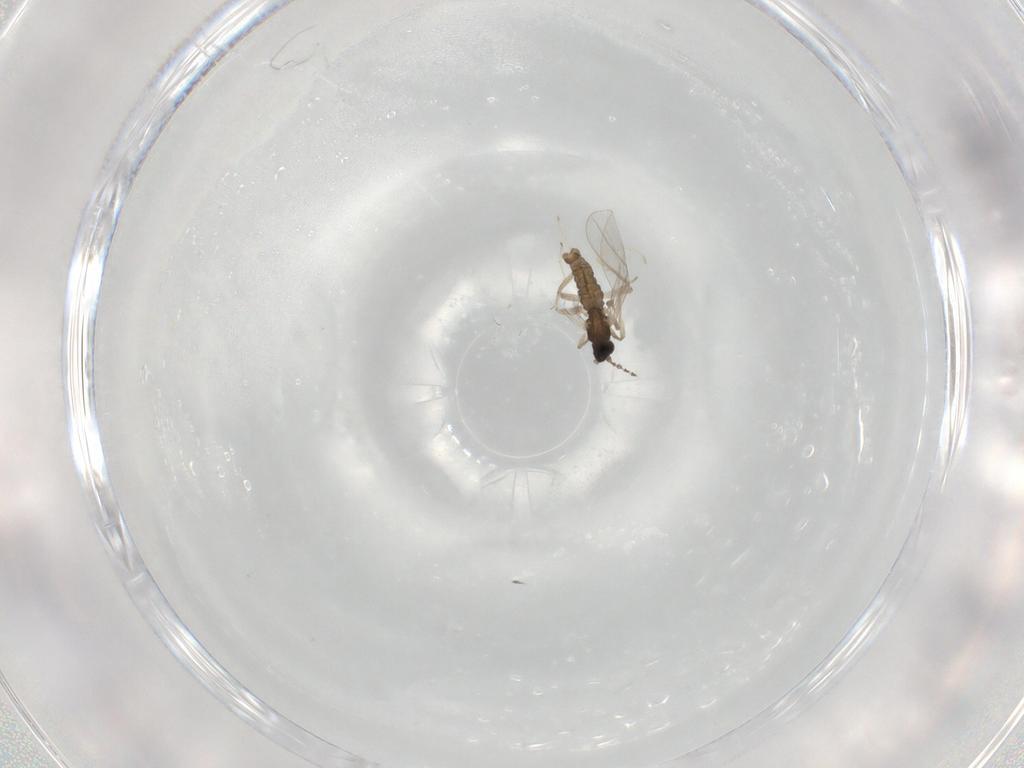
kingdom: Animalia
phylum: Arthropoda
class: Insecta
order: Diptera
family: Cecidomyiidae
